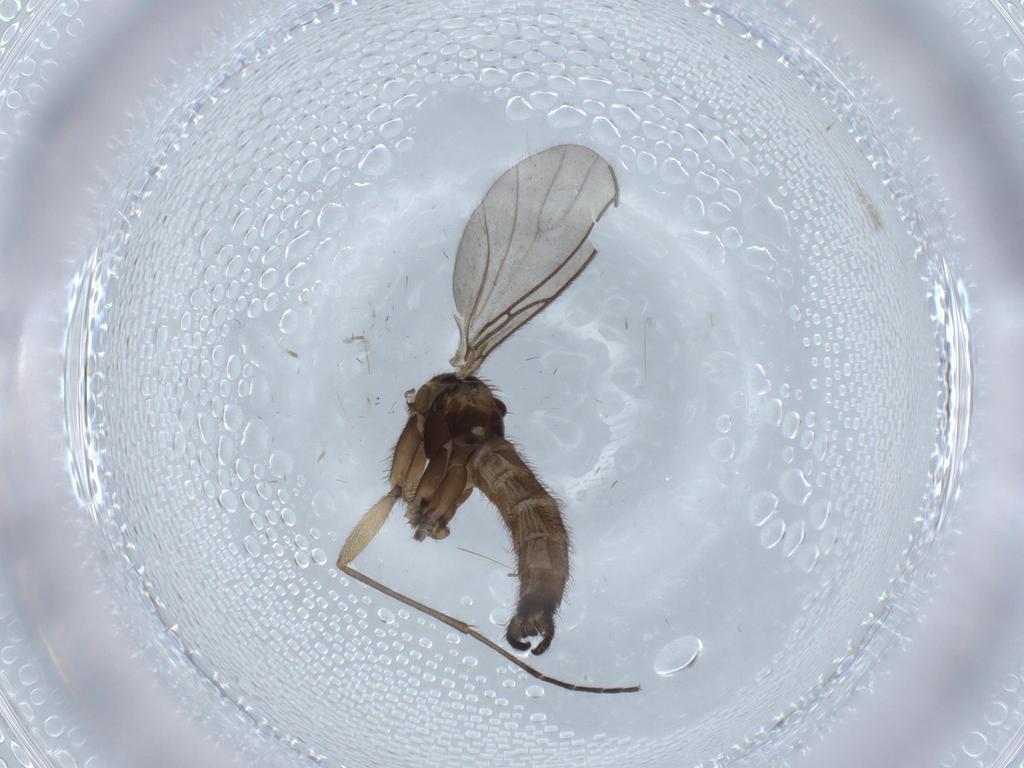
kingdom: Animalia
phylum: Arthropoda
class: Insecta
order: Diptera
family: Sciaridae
